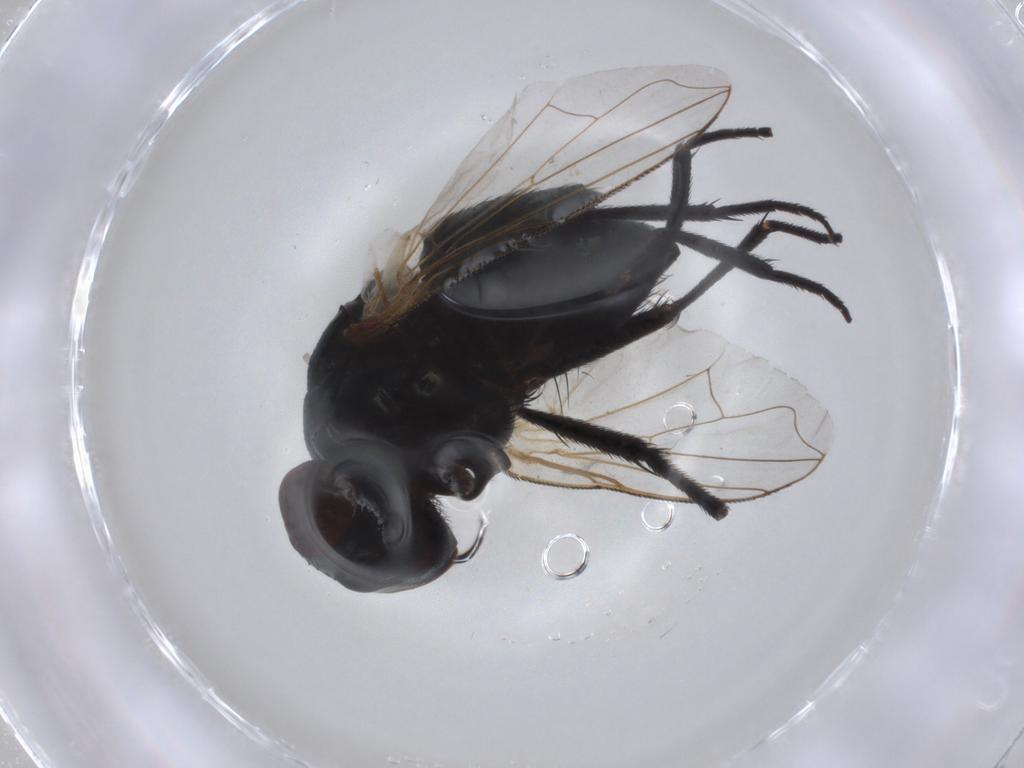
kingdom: Animalia
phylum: Arthropoda
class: Insecta
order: Diptera
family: Platystomatidae
